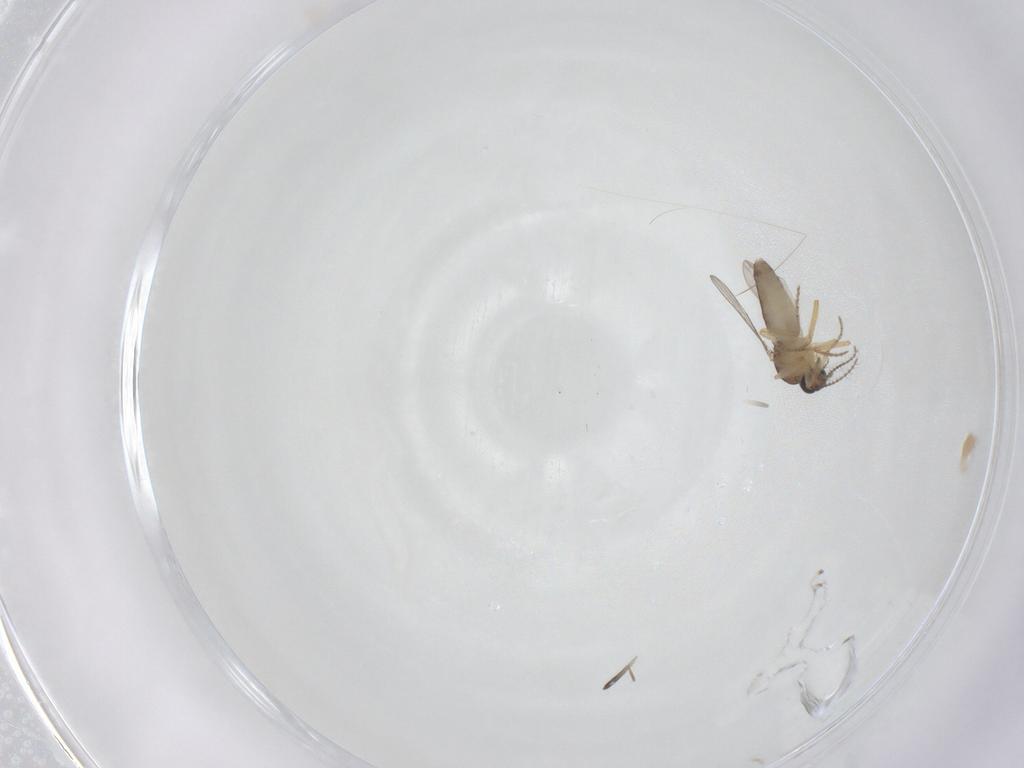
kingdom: Animalia
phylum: Arthropoda
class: Insecta
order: Diptera
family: Ceratopogonidae
